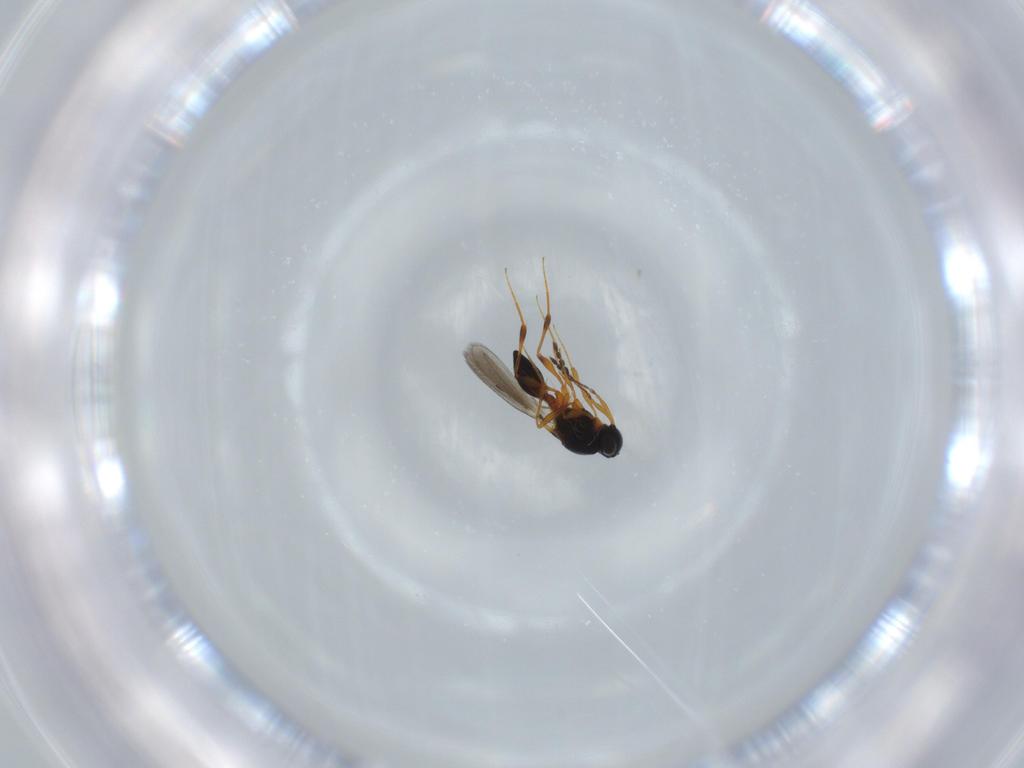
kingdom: Animalia
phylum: Arthropoda
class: Insecta
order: Hymenoptera
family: Platygastridae
